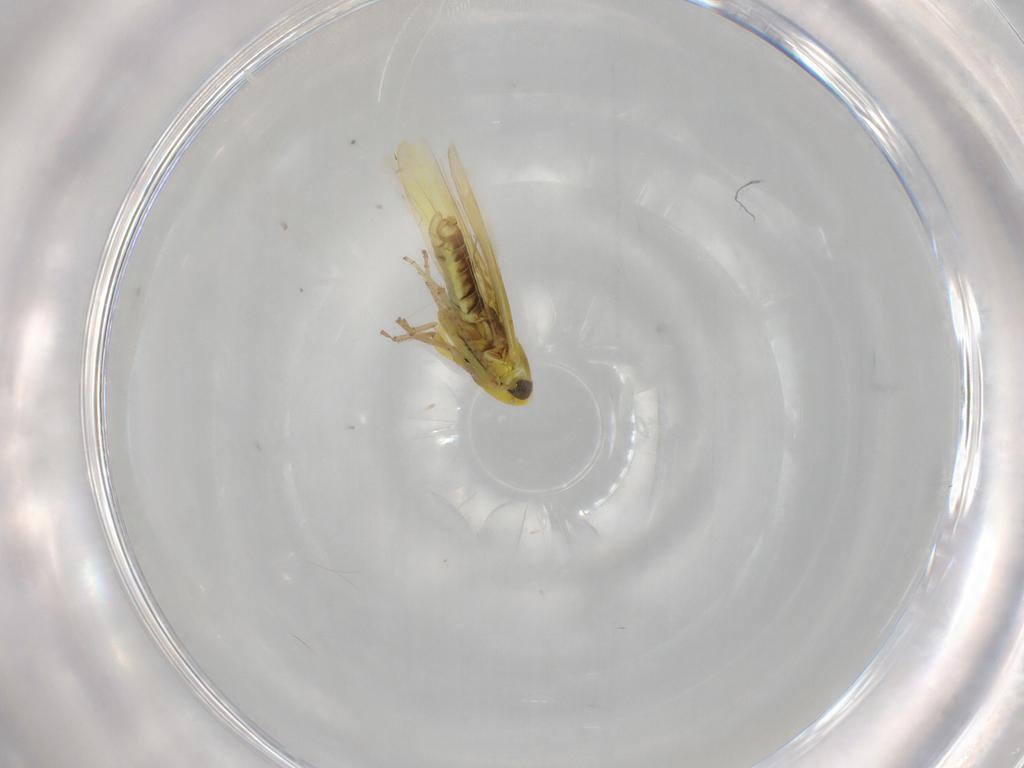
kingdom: Animalia
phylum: Arthropoda
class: Insecta
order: Hemiptera
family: Cicadellidae
